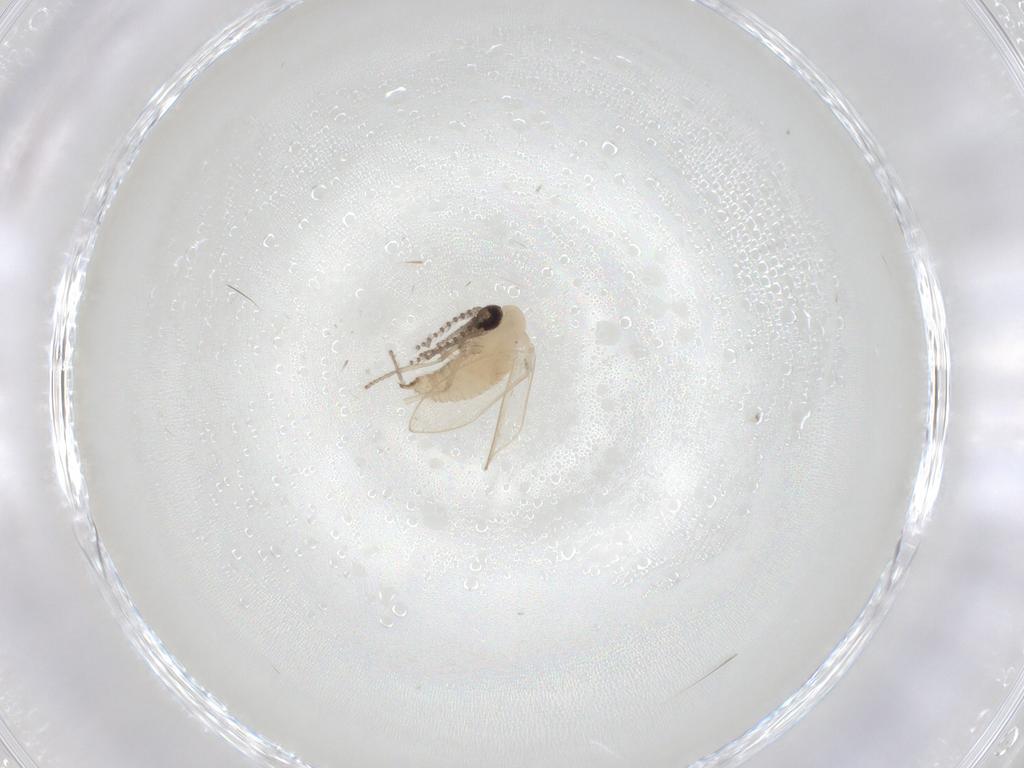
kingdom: Animalia
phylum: Arthropoda
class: Insecta
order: Diptera
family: Psychodidae
